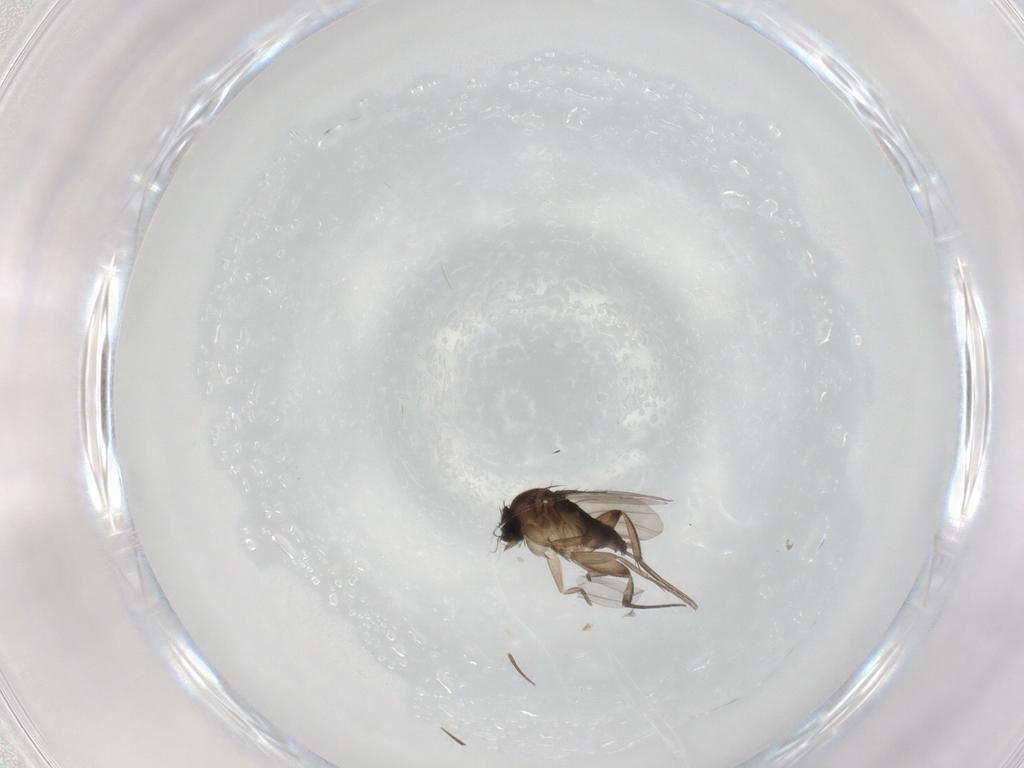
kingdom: Animalia
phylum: Arthropoda
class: Insecta
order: Diptera
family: Phoridae
